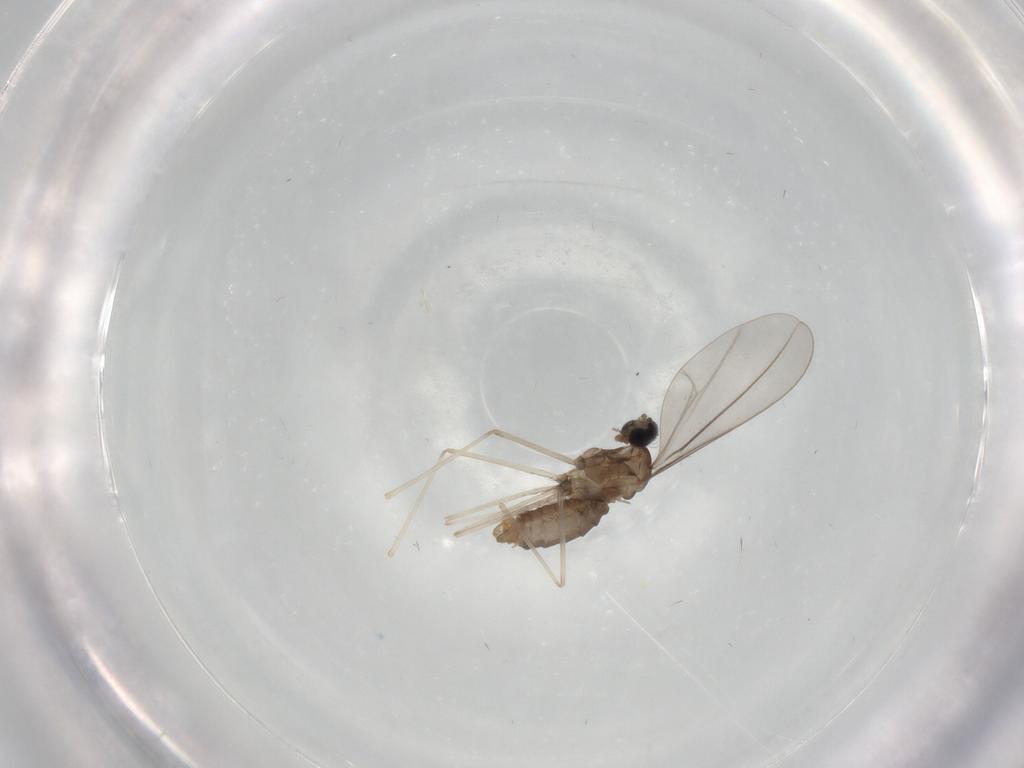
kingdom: Animalia
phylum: Arthropoda
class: Insecta
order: Diptera
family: Cecidomyiidae
